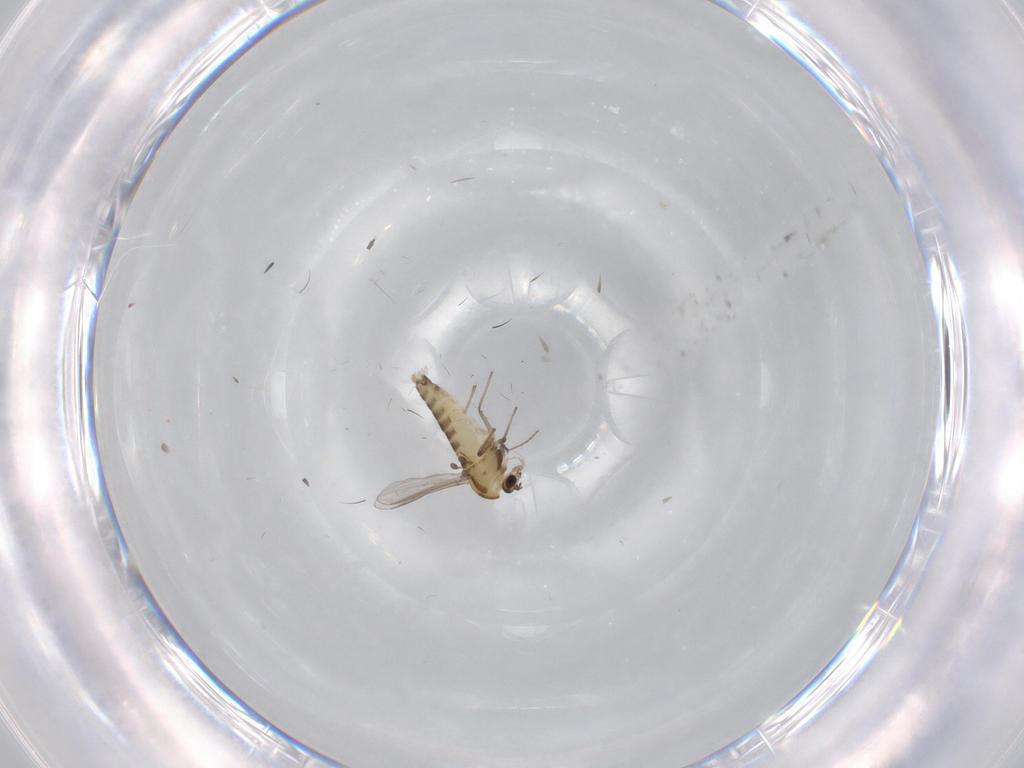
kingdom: Animalia
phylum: Arthropoda
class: Insecta
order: Diptera
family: Chironomidae
